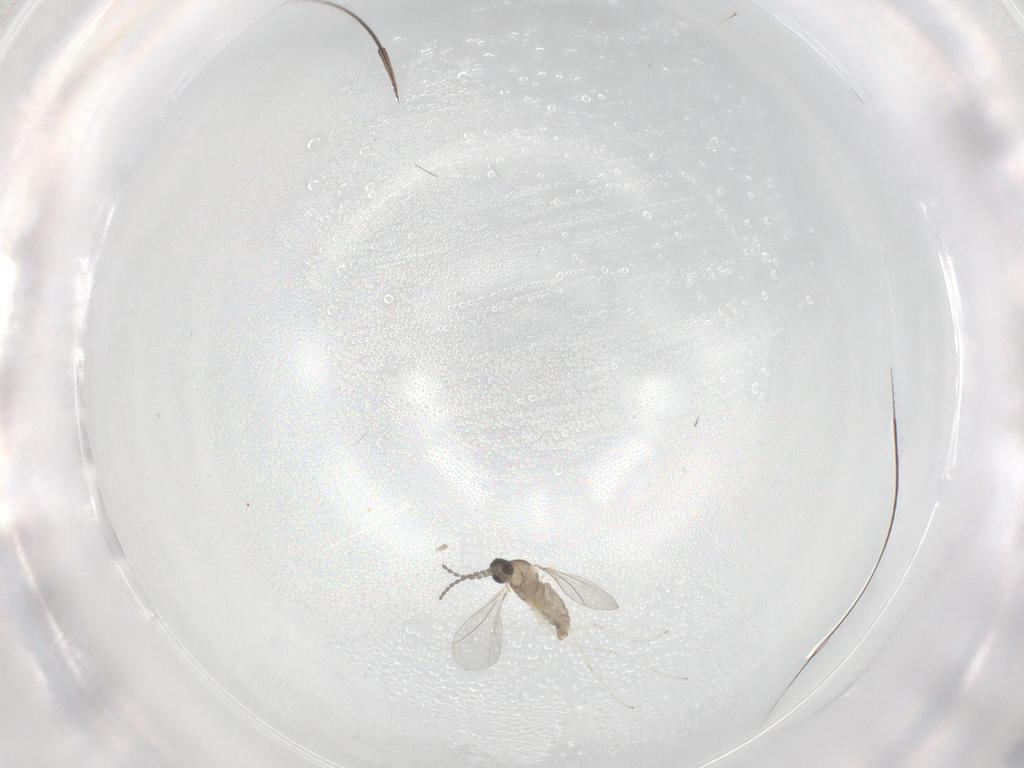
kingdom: Animalia
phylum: Arthropoda
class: Insecta
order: Diptera
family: Cecidomyiidae
